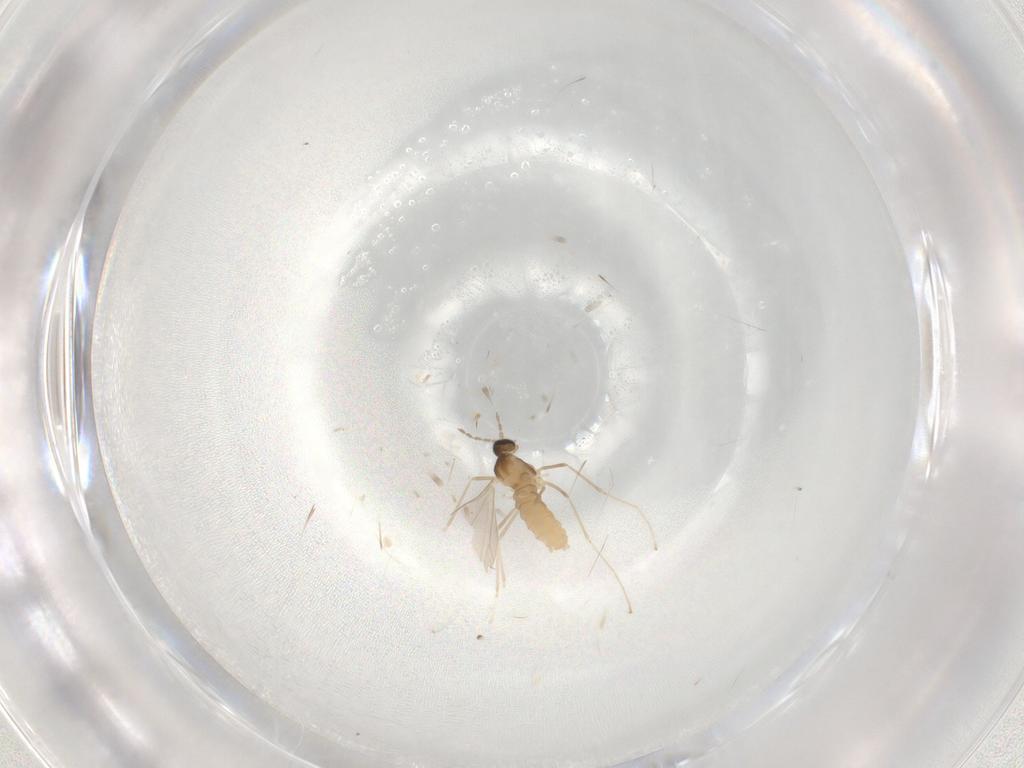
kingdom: Animalia
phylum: Arthropoda
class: Insecta
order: Diptera
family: Cecidomyiidae
